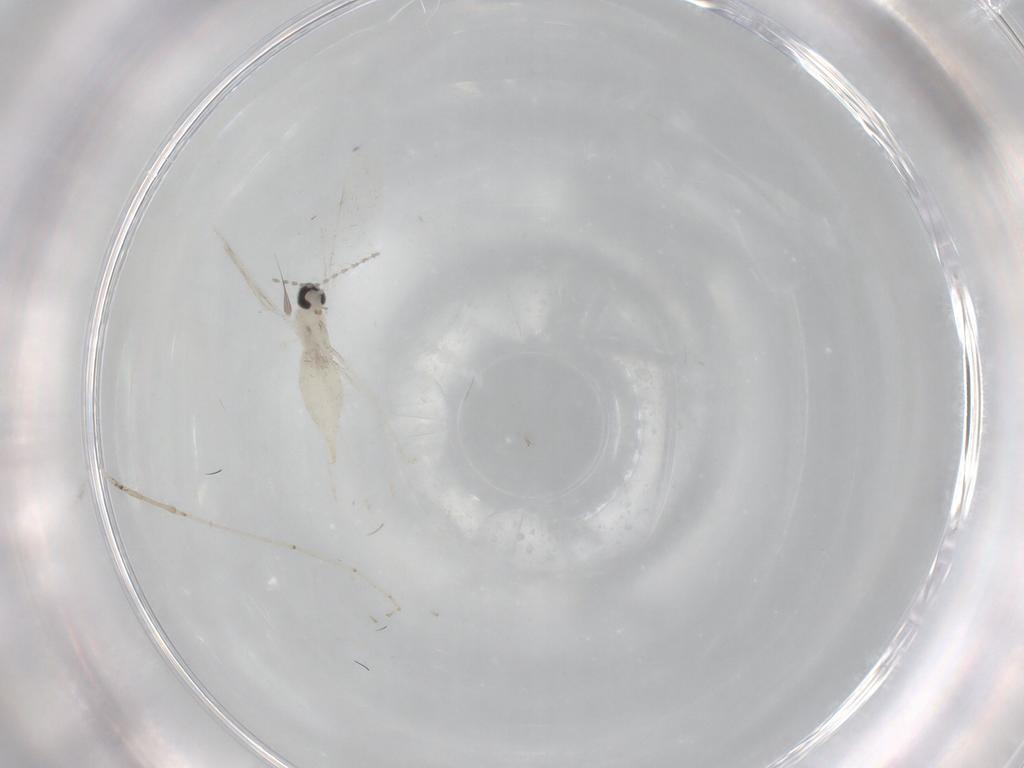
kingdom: Animalia
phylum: Arthropoda
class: Insecta
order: Diptera
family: Cecidomyiidae
